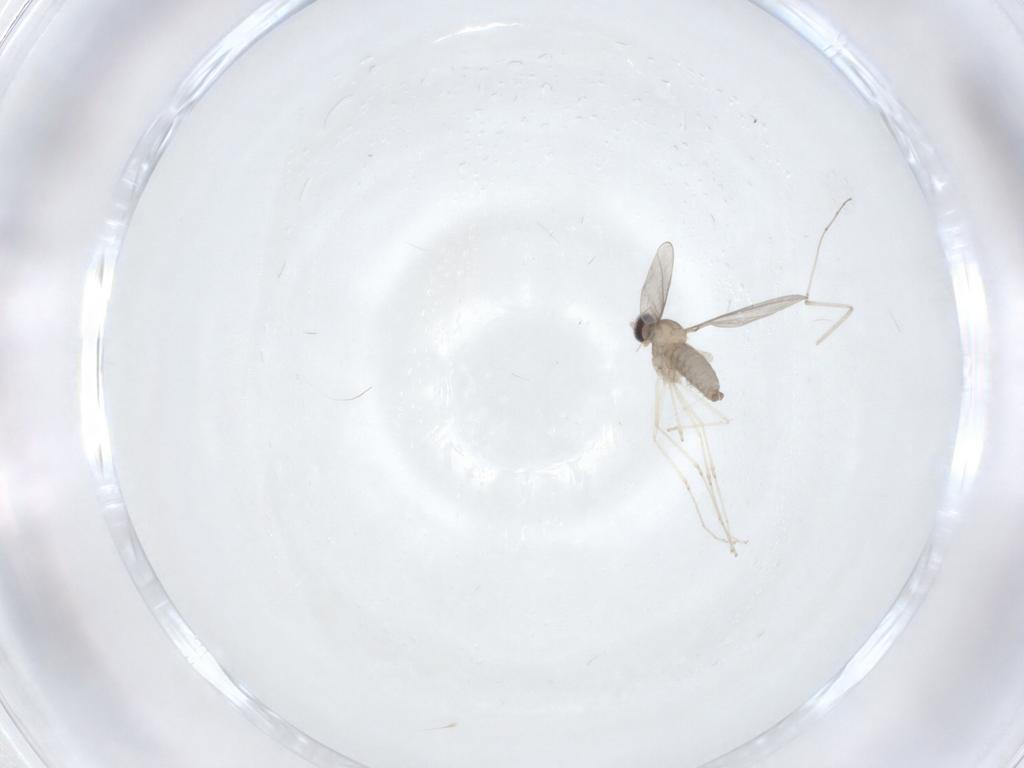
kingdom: Animalia
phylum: Arthropoda
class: Insecta
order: Diptera
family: Cecidomyiidae
